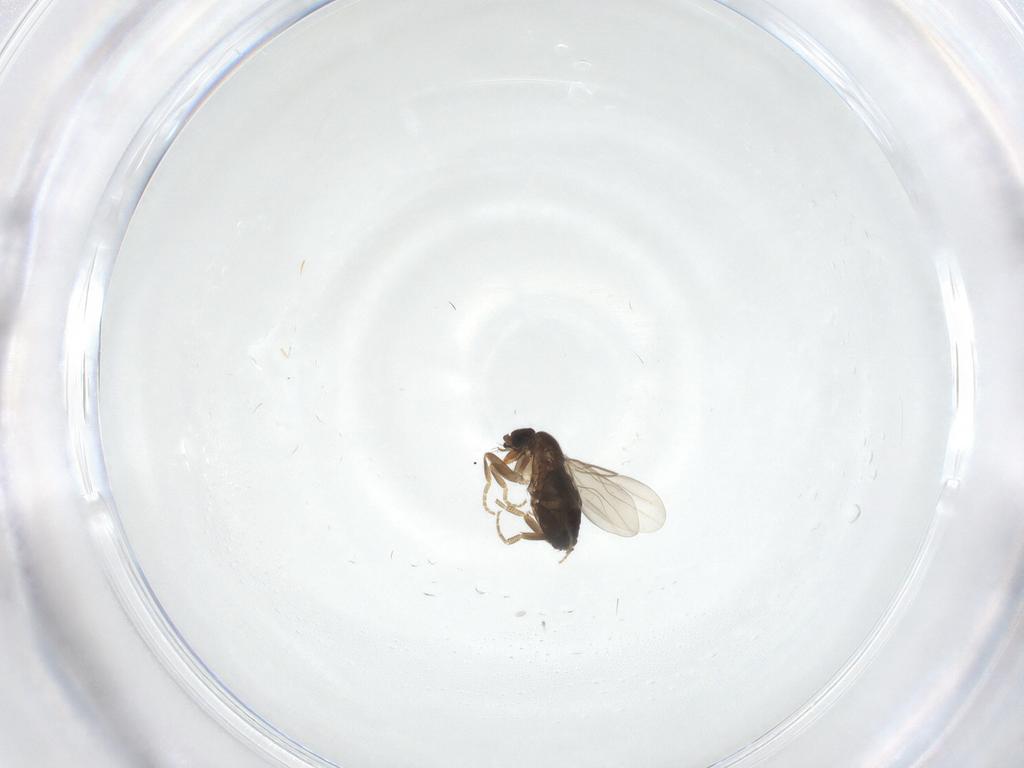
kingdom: Animalia
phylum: Arthropoda
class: Insecta
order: Diptera
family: Phoridae
